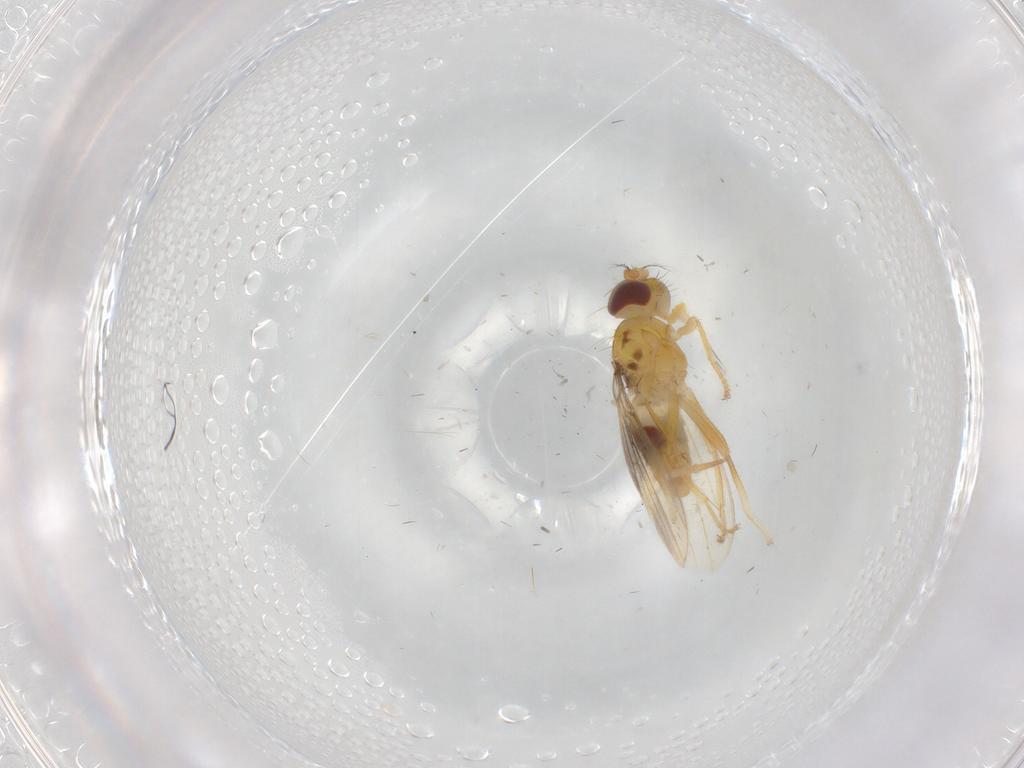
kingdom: Animalia
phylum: Arthropoda
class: Insecta
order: Diptera
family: Periscelididae
